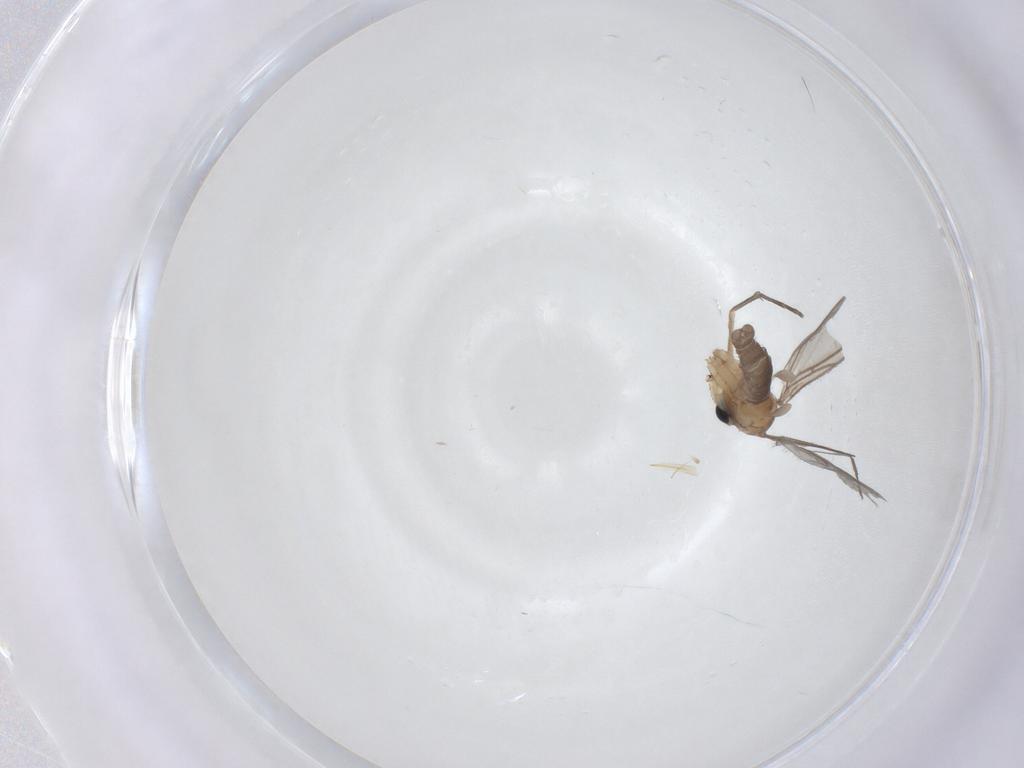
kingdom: Animalia
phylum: Arthropoda
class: Insecta
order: Diptera
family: Sciaridae
